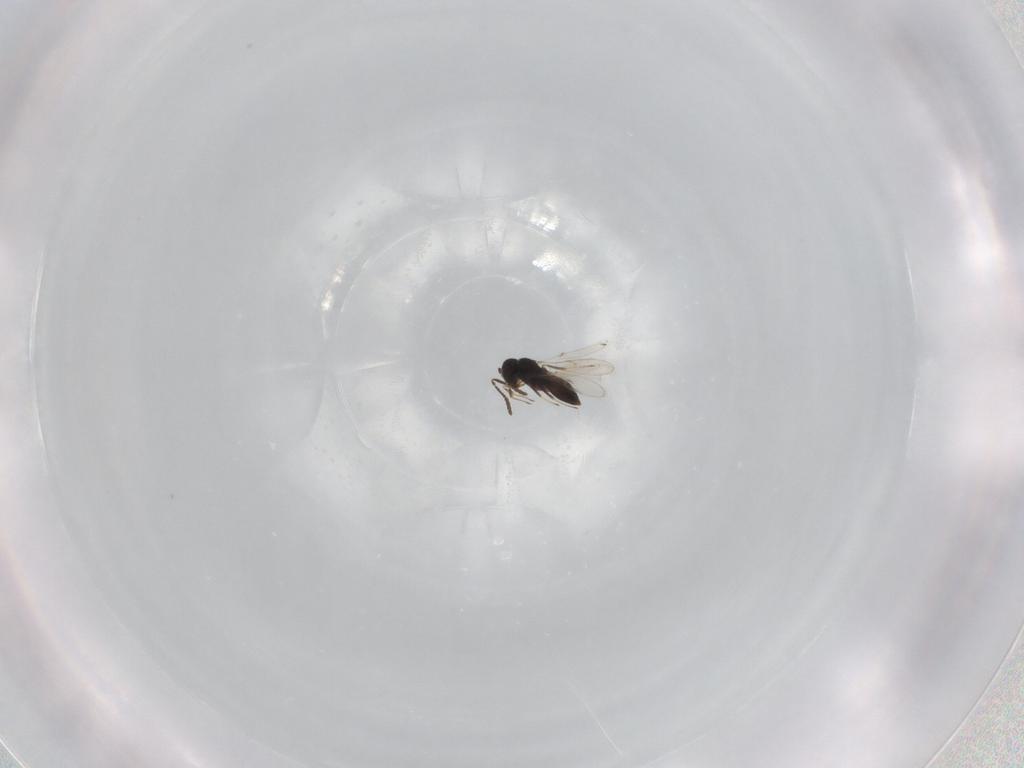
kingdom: Animalia
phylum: Arthropoda
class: Insecta
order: Hymenoptera
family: Scelionidae
